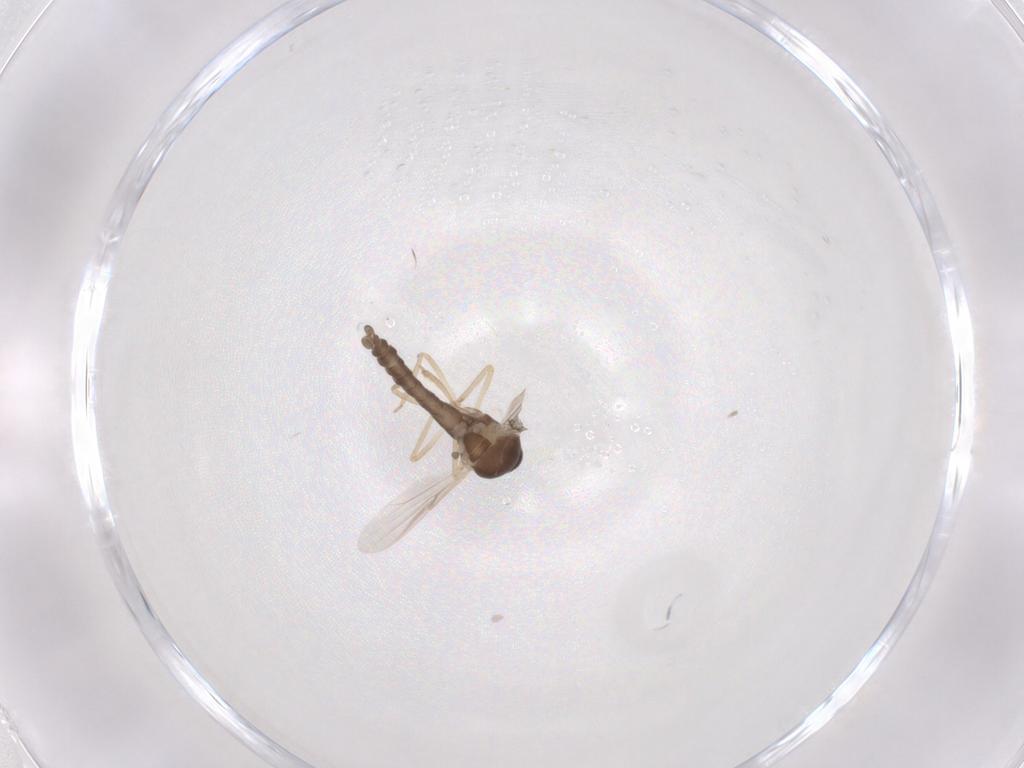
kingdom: Animalia
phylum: Arthropoda
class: Insecta
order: Diptera
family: Ceratopogonidae
